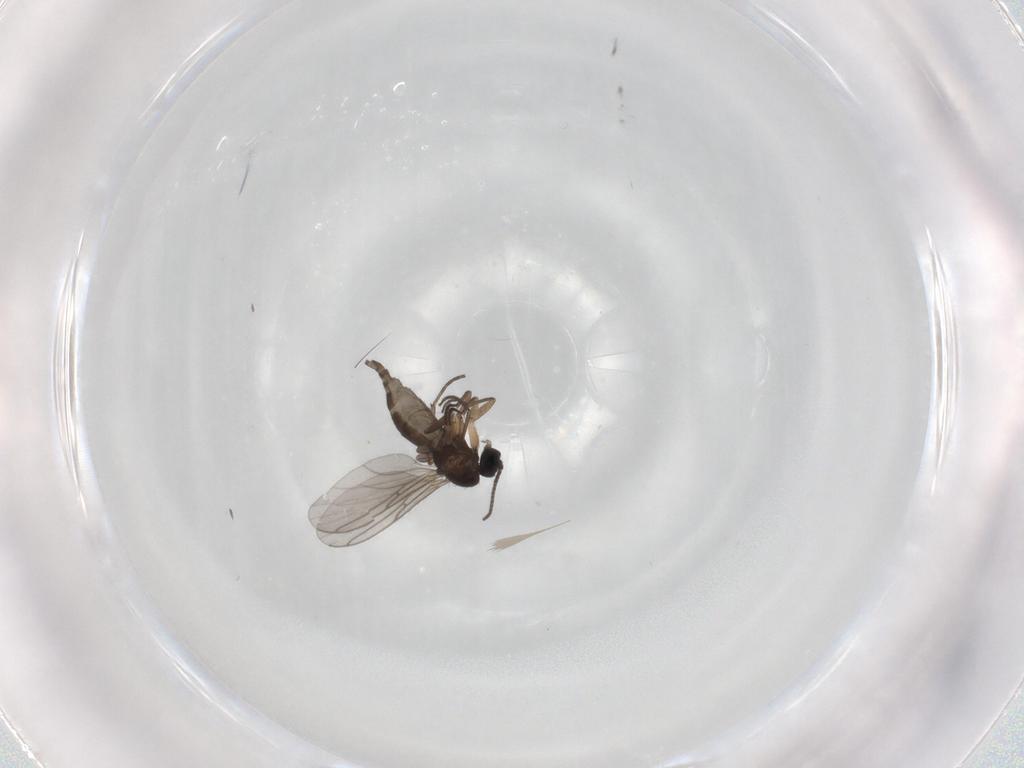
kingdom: Animalia
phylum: Arthropoda
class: Insecta
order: Diptera
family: Sciaridae
